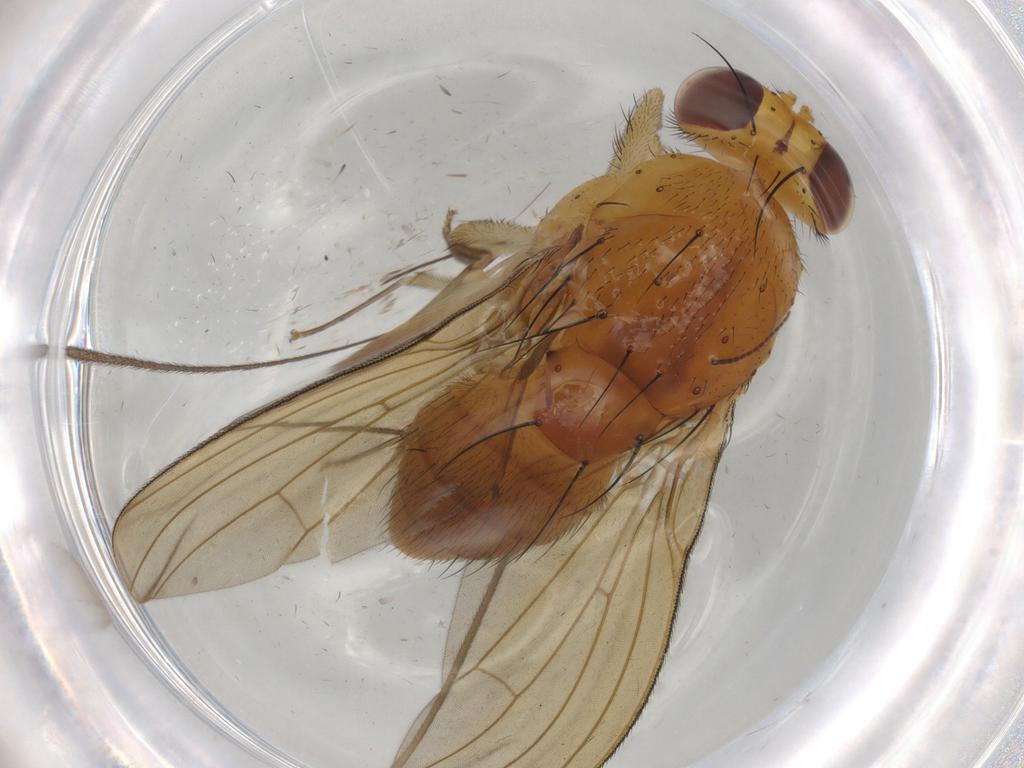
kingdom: Animalia
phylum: Arthropoda
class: Insecta
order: Diptera
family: Limoniidae
